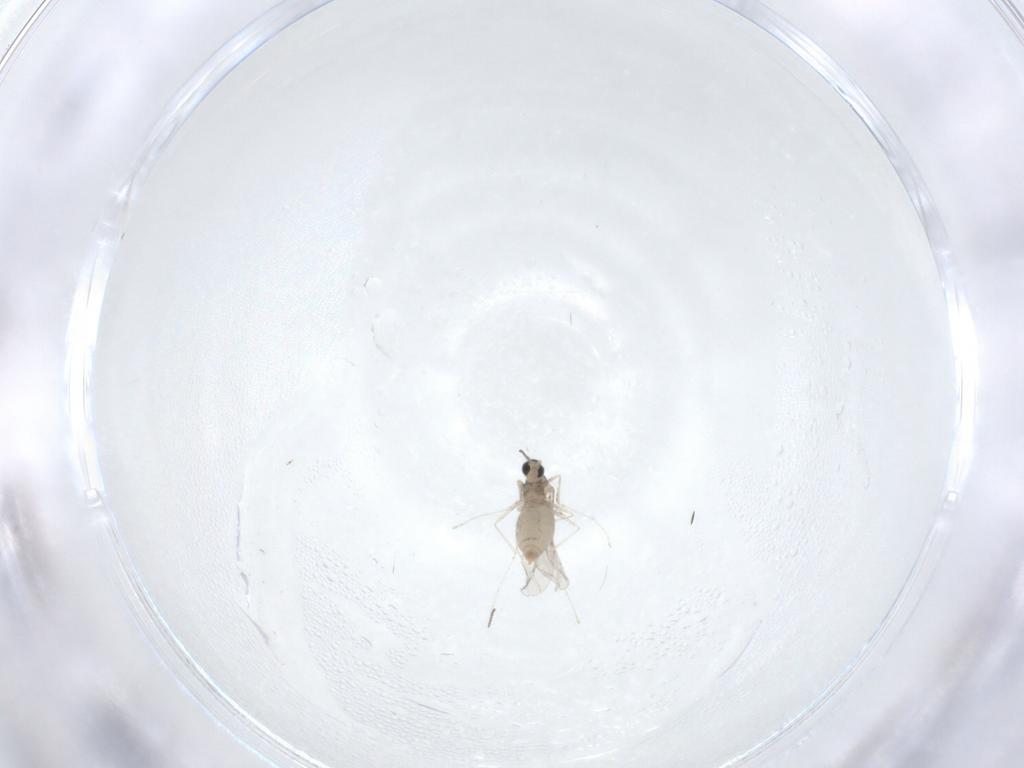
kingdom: Animalia
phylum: Arthropoda
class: Insecta
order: Diptera
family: Cecidomyiidae
